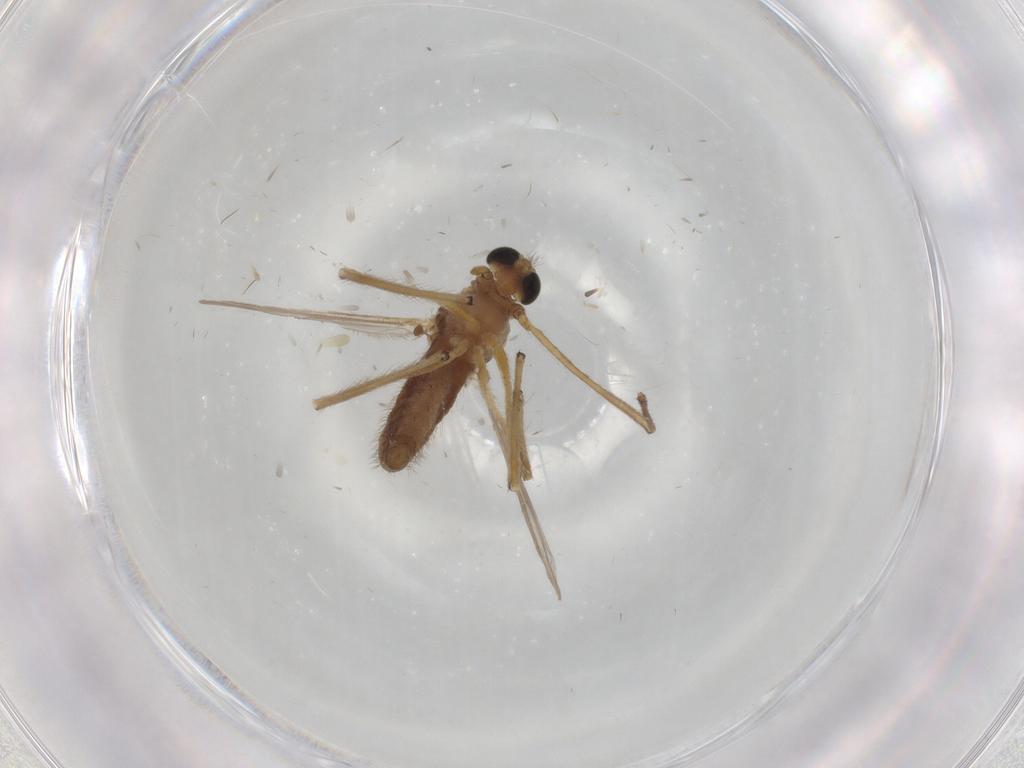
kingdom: Animalia
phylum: Arthropoda
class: Insecta
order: Diptera
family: Chironomidae
